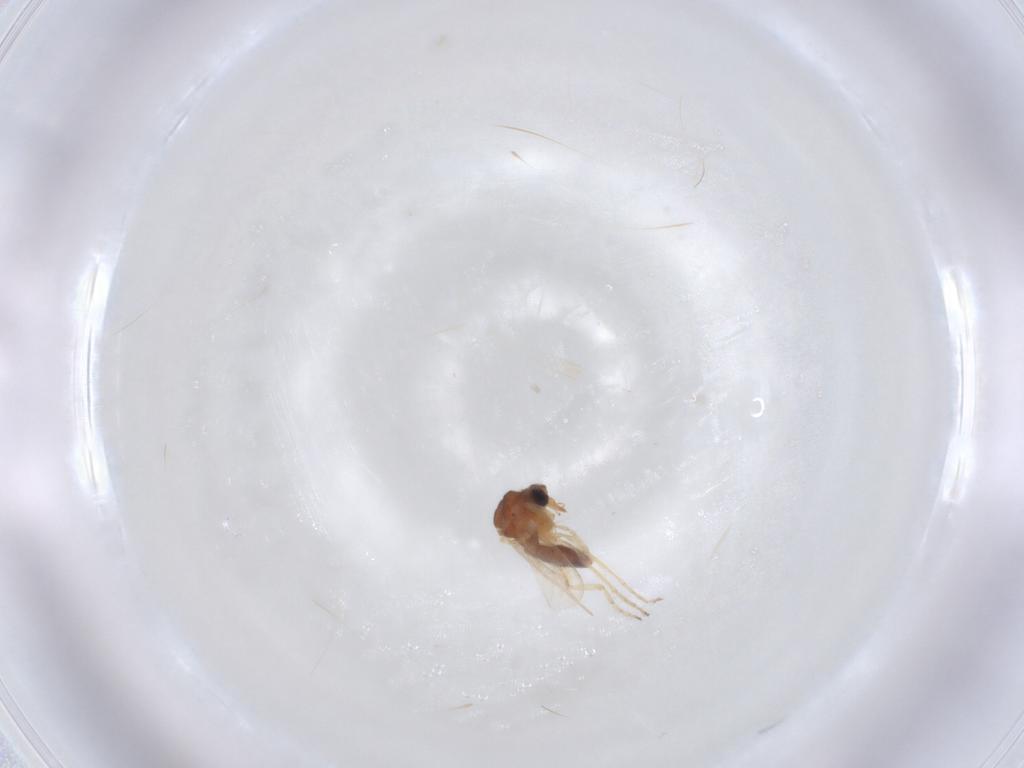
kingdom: Animalia
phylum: Arthropoda
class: Insecta
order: Diptera
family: Ceratopogonidae
